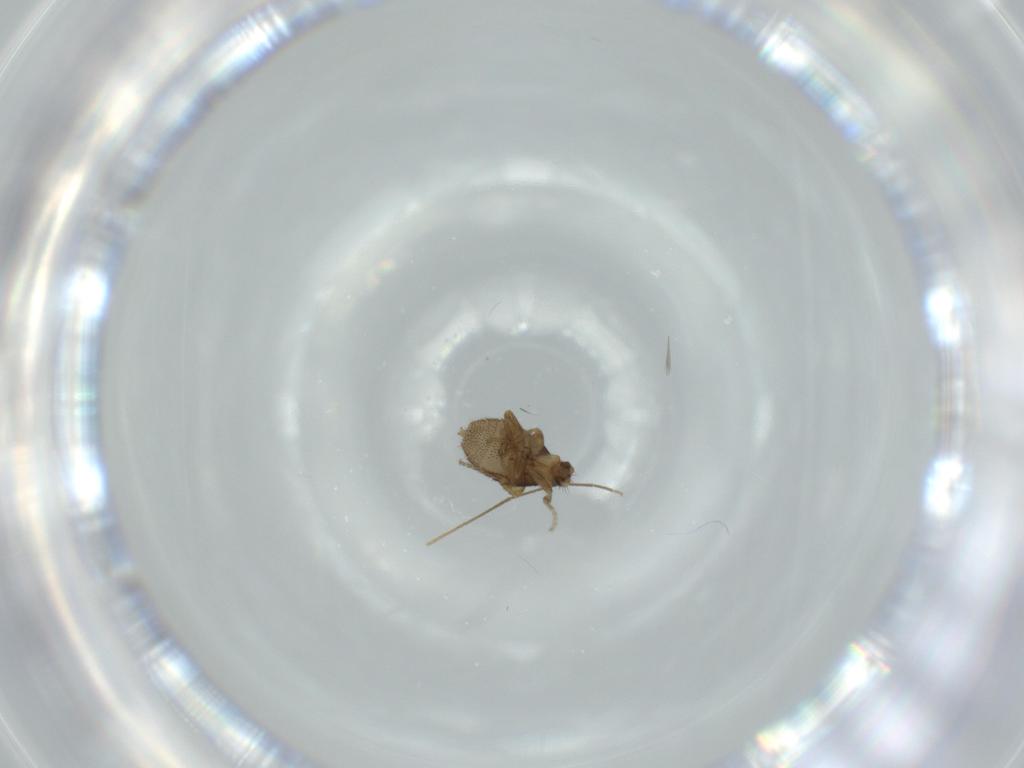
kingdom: Animalia
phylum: Arthropoda
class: Insecta
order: Diptera
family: Phoridae
